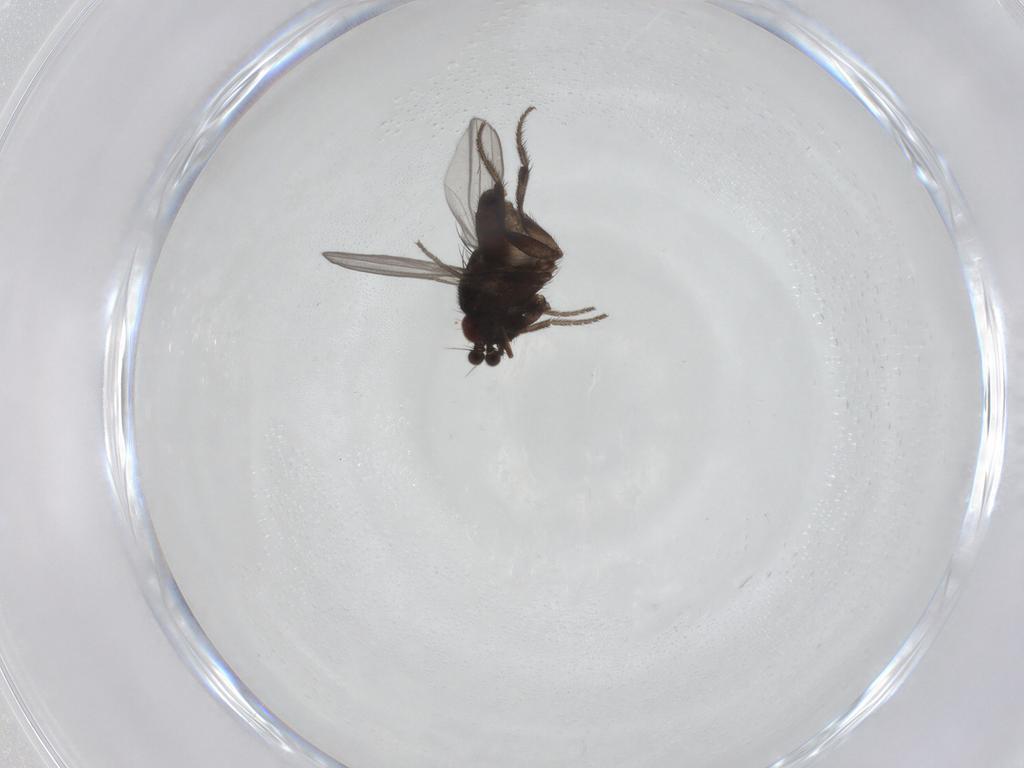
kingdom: Animalia
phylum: Arthropoda
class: Insecta
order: Diptera
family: Milichiidae
